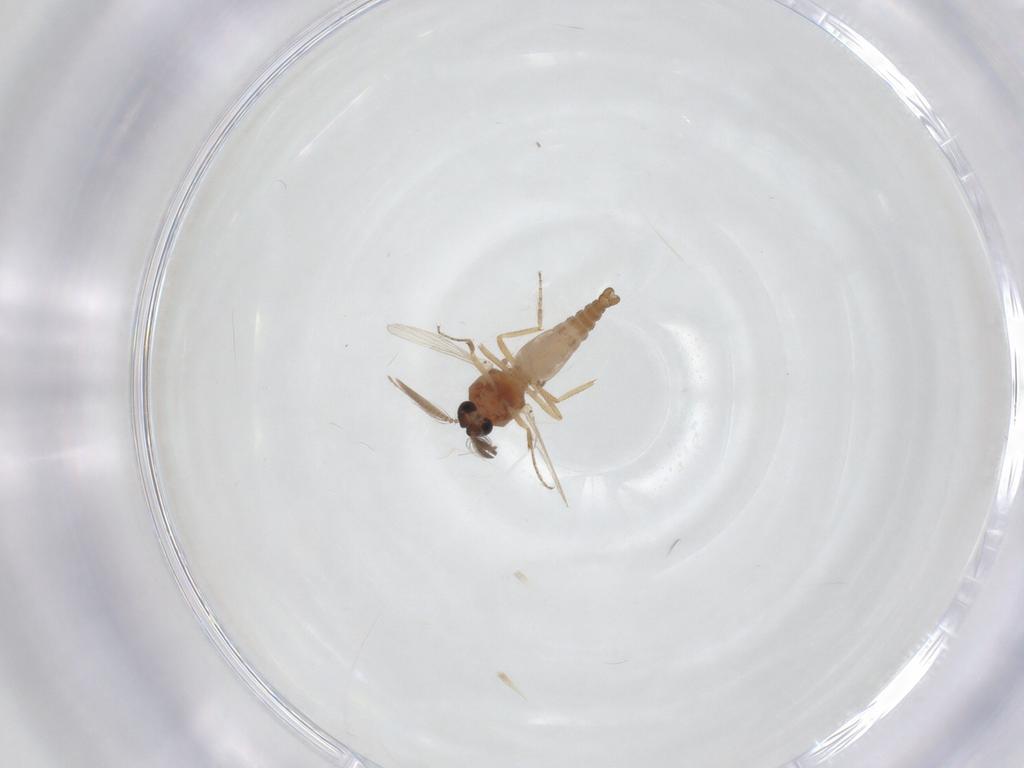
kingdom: Animalia
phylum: Arthropoda
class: Insecta
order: Diptera
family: Ceratopogonidae
